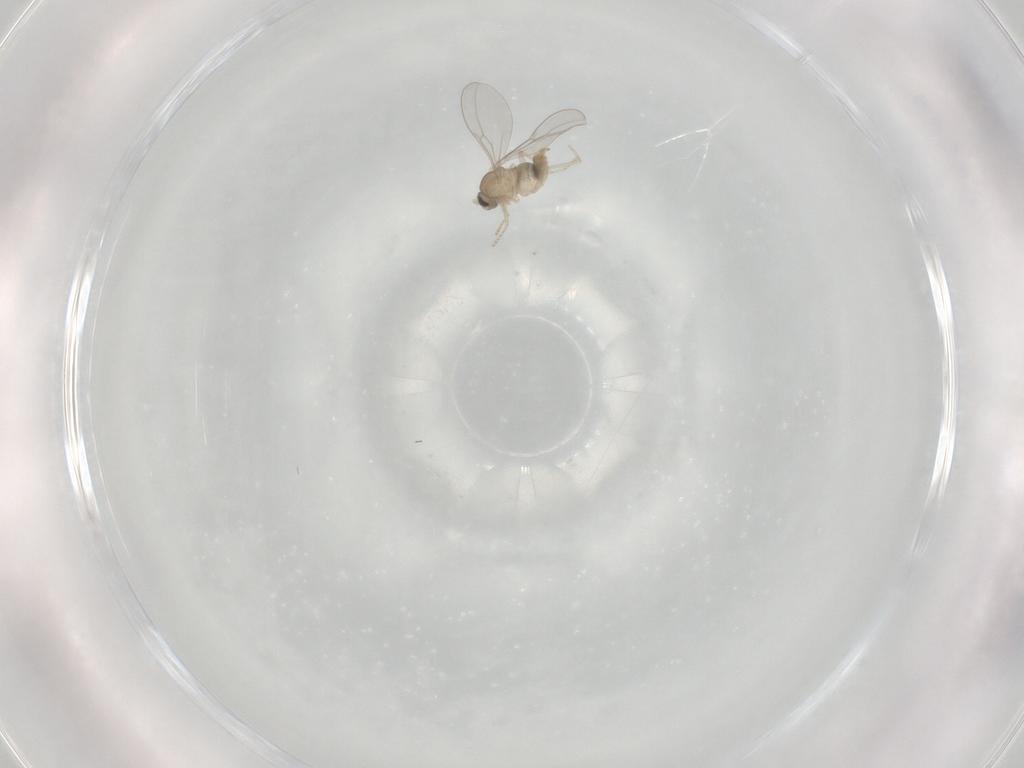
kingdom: Animalia
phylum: Arthropoda
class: Insecta
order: Diptera
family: Cecidomyiidae
